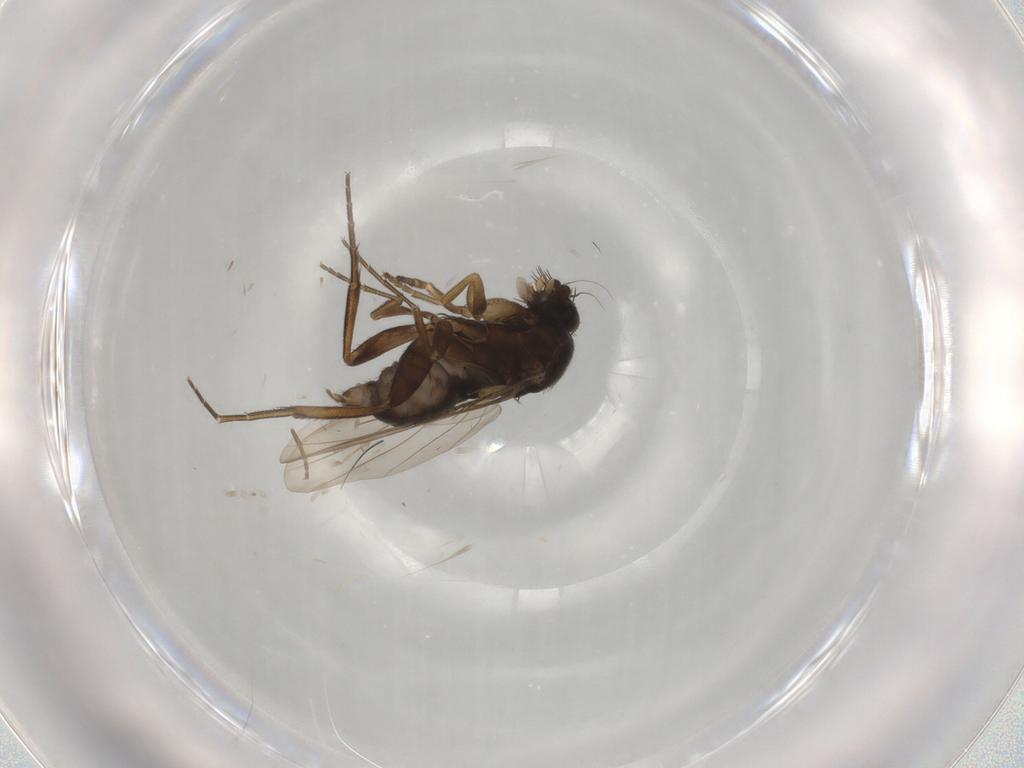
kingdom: Animalia
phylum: Arthropoda
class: Insecta
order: Diptera
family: Phoridae
